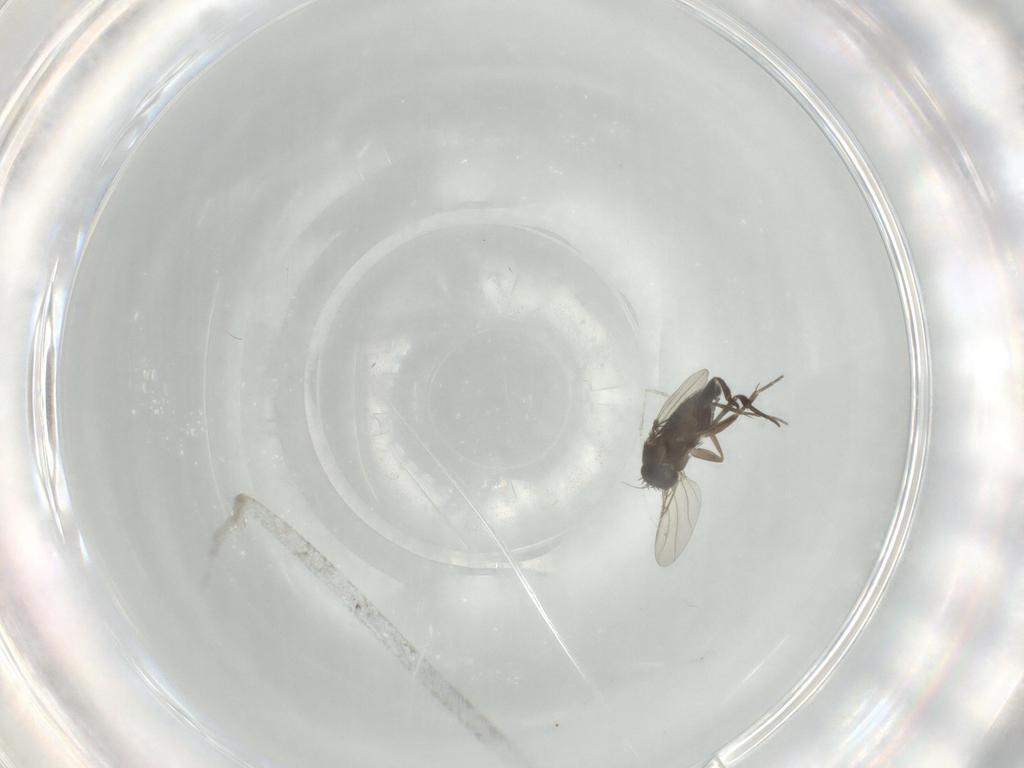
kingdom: Animalia
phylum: Arthropoda
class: Insecta
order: Diptera
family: Phoridae
